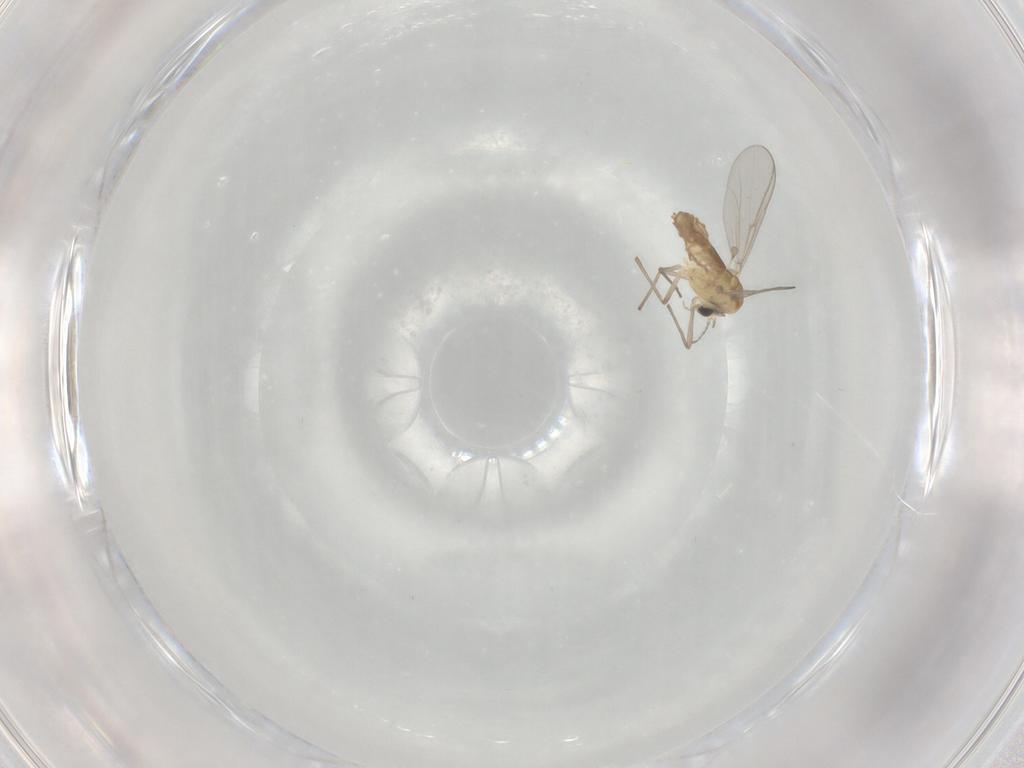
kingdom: Animalia
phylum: Arthropoda
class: Insecta
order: Diptera
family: Chironomidae
